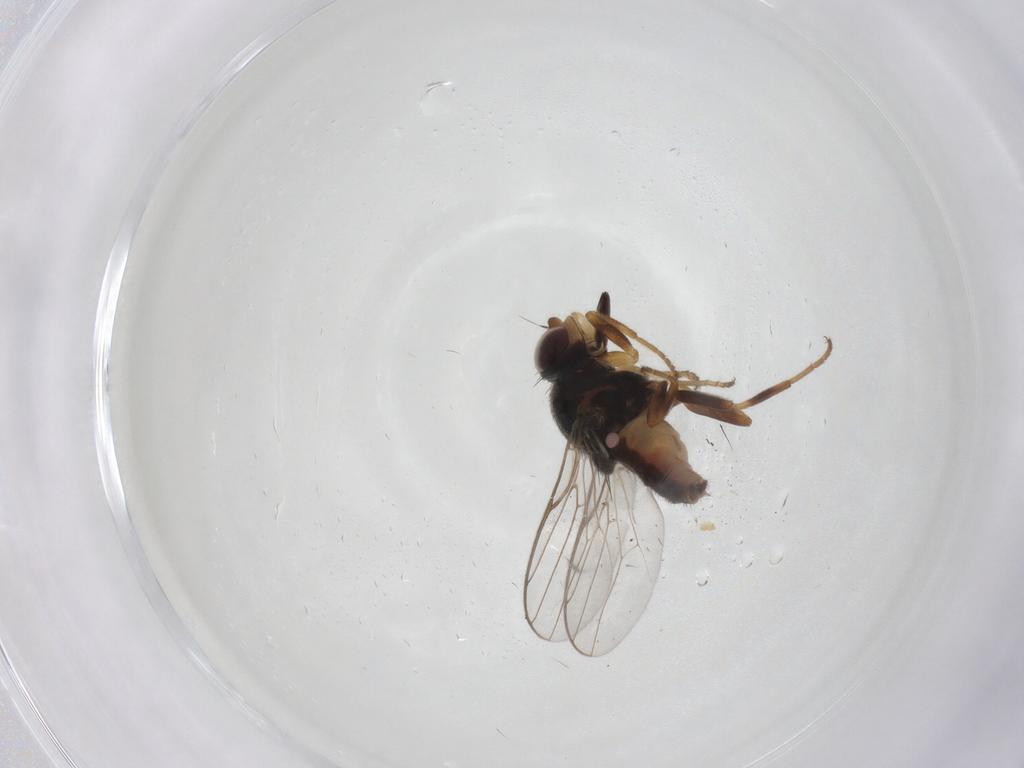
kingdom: Animalia
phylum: Arthropoda
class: Insecta
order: Diptera
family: Chloropidae
